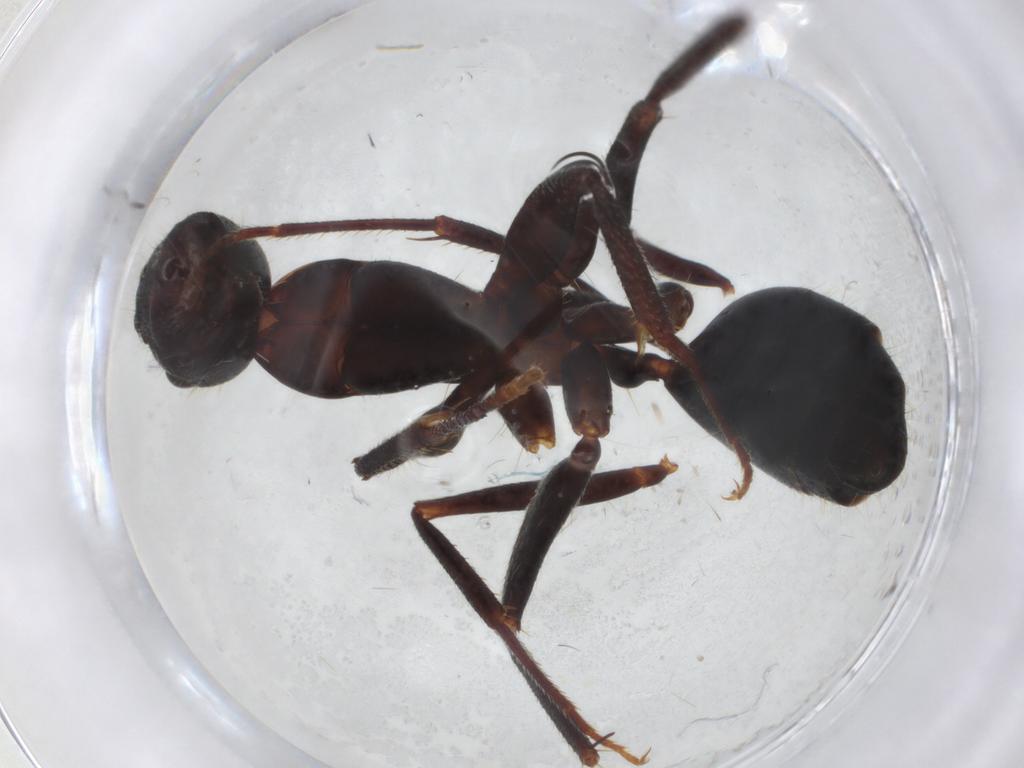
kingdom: Animalia
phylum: Arthropoda
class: Insecta
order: Hymenoptera
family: Formicidae
